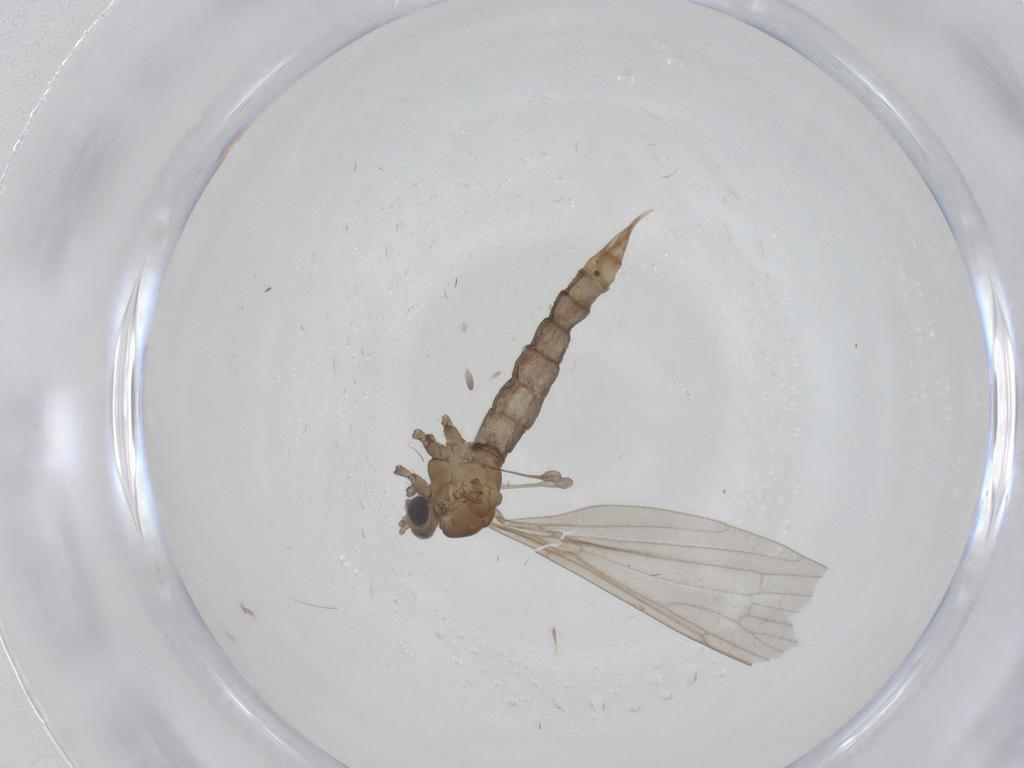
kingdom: Animalia
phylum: Arthropoda
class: Insecta
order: Diptera
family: Limoniidae
